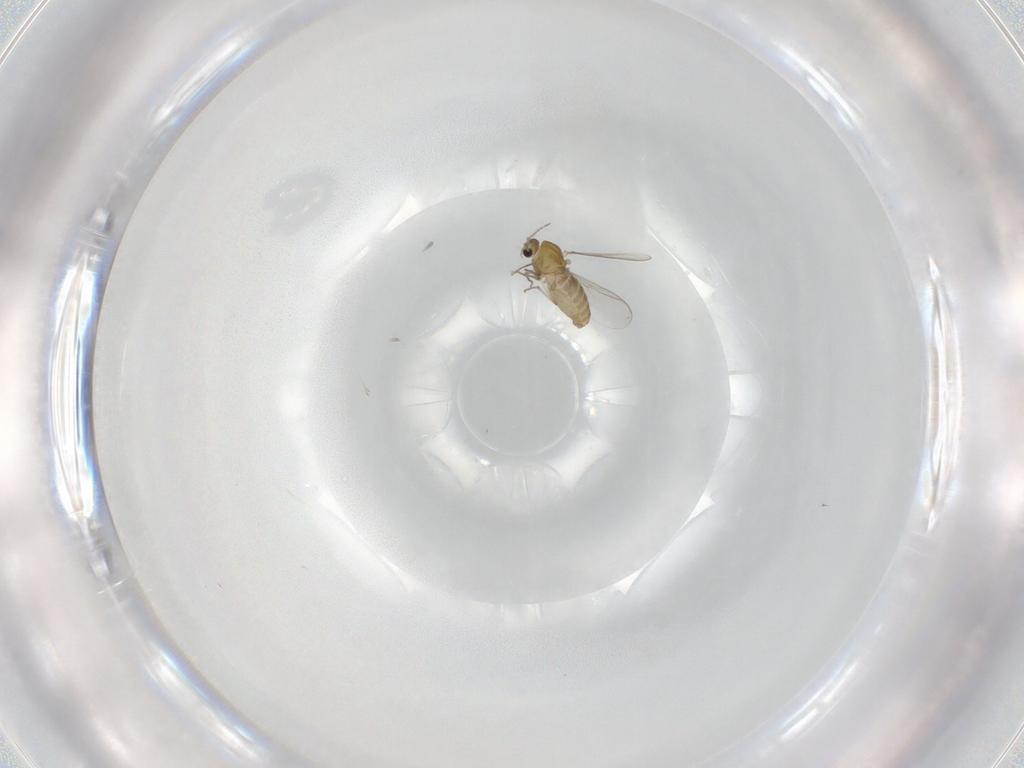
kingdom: Animalia
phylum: Arthropoda
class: Insecta
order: Diptera
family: Chironomidae
